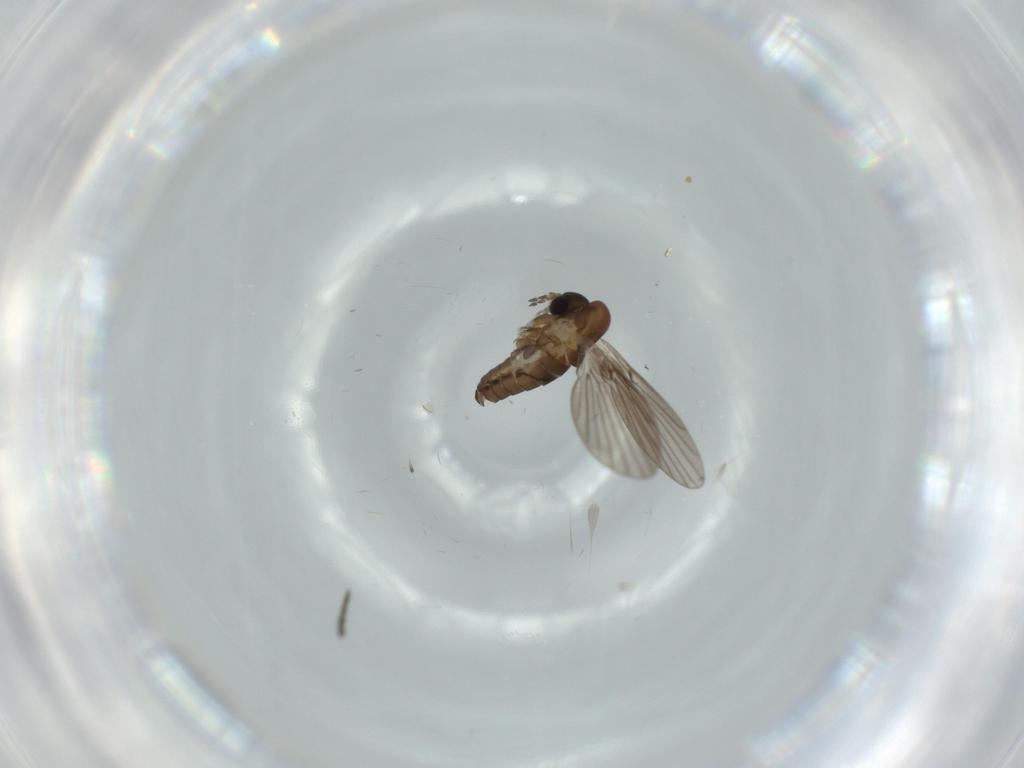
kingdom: Animalia
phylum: Arthropoda
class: Insecta
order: Diptera
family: Sciaridae
